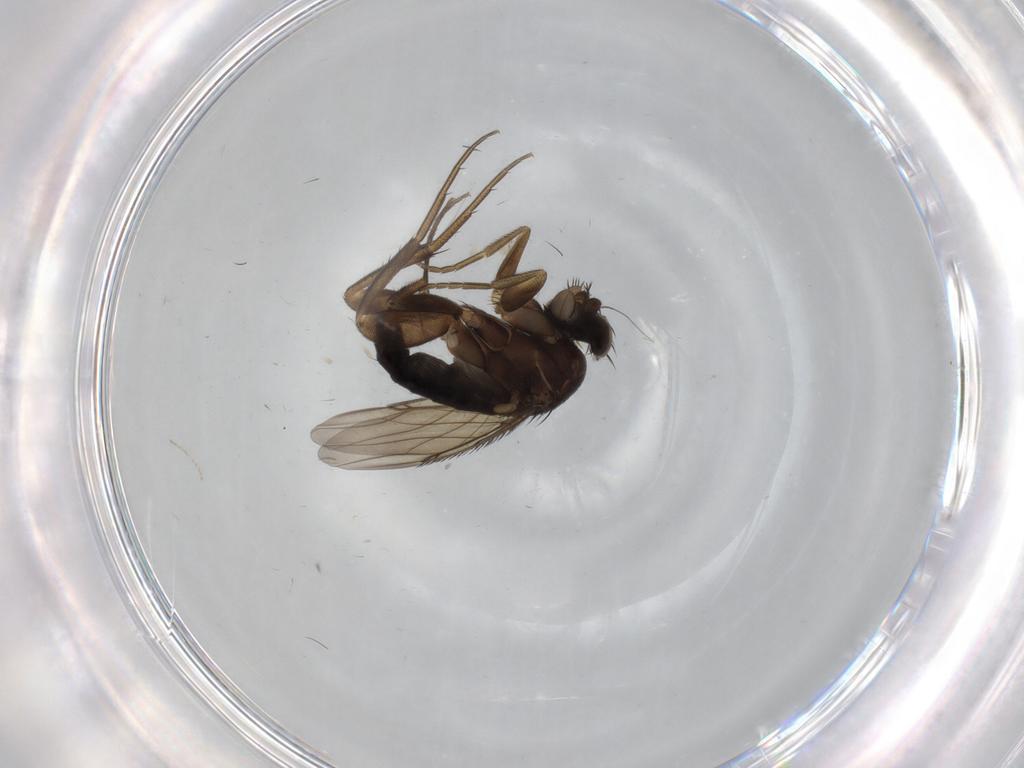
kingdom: Animalia
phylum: Arthropoda
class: Insecta
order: Diptera
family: Phoridae
